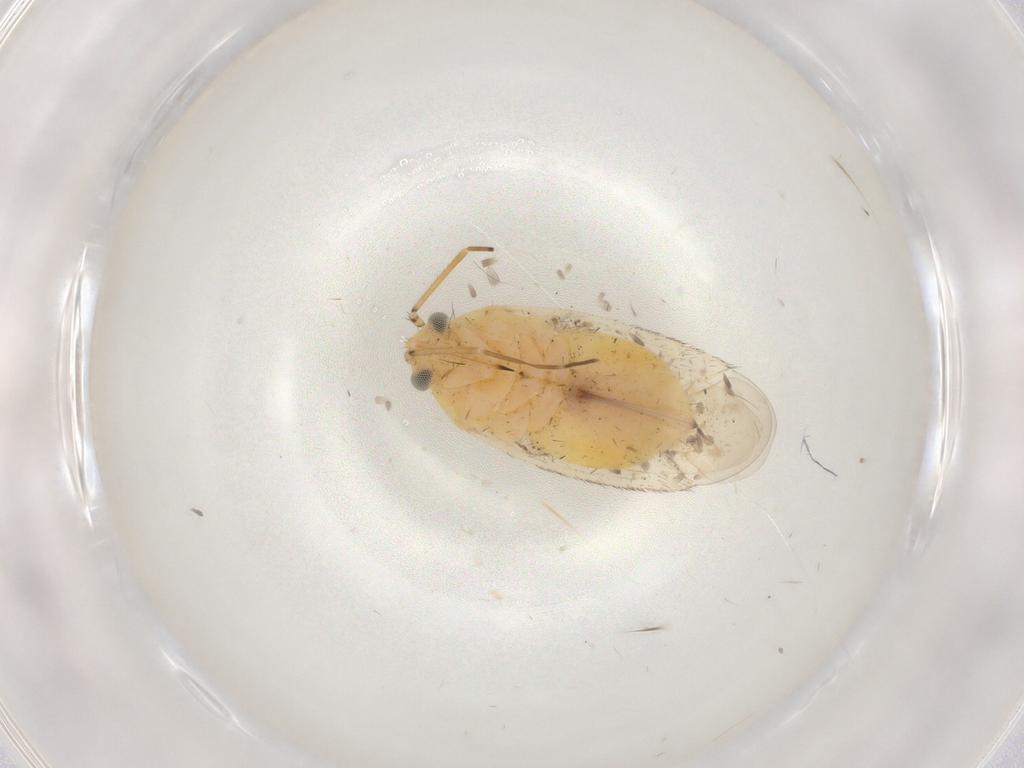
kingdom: Animalia
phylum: Arthropoda
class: Insecta
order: Hemiptera
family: Miridae
